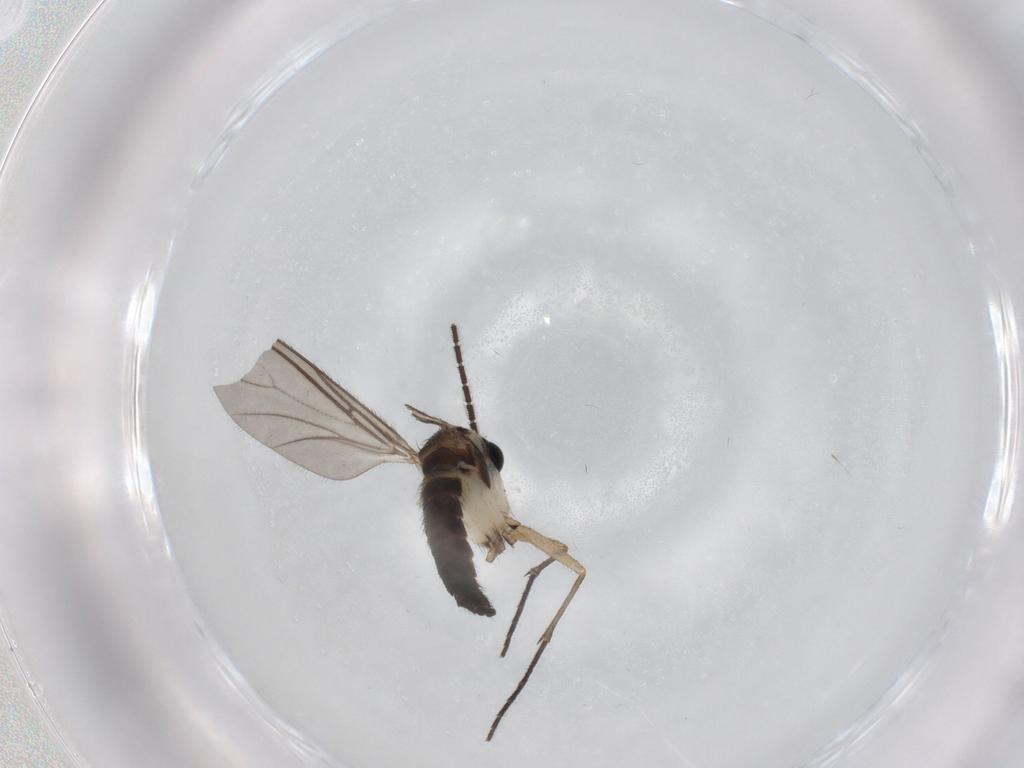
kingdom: Animalia
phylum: Arthropoda
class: Insecta
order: Diptera
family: Sciaridae
